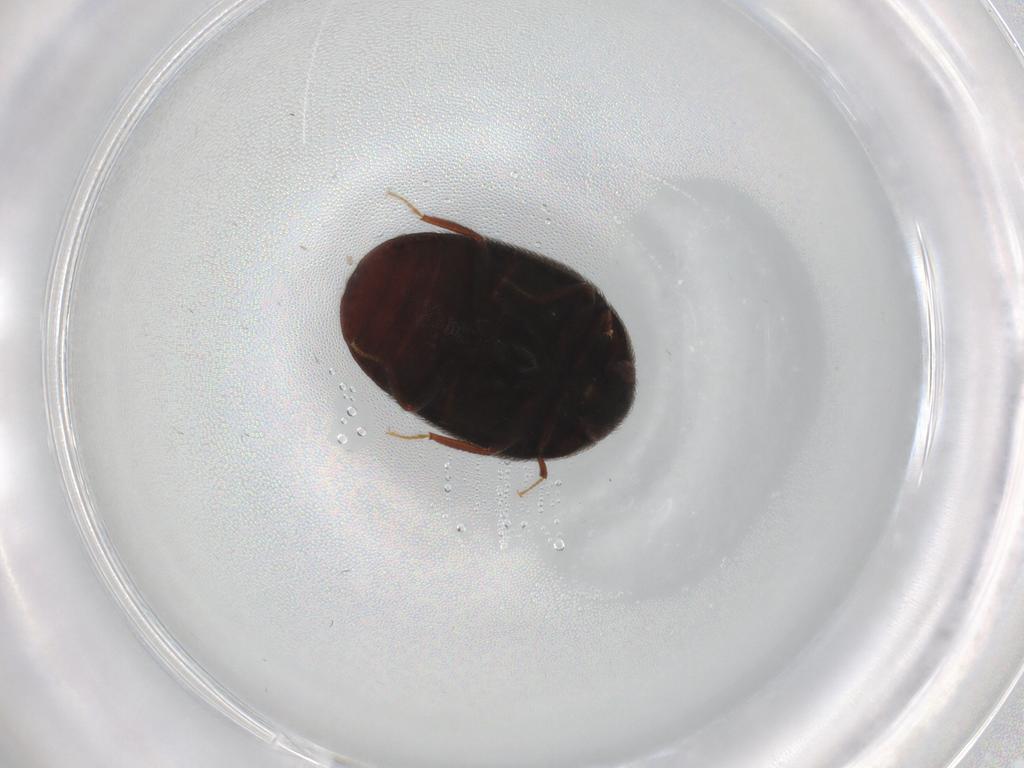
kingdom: Animalia
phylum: Arthropoda
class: Insecta
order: Coleoptera
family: Dermestidae
